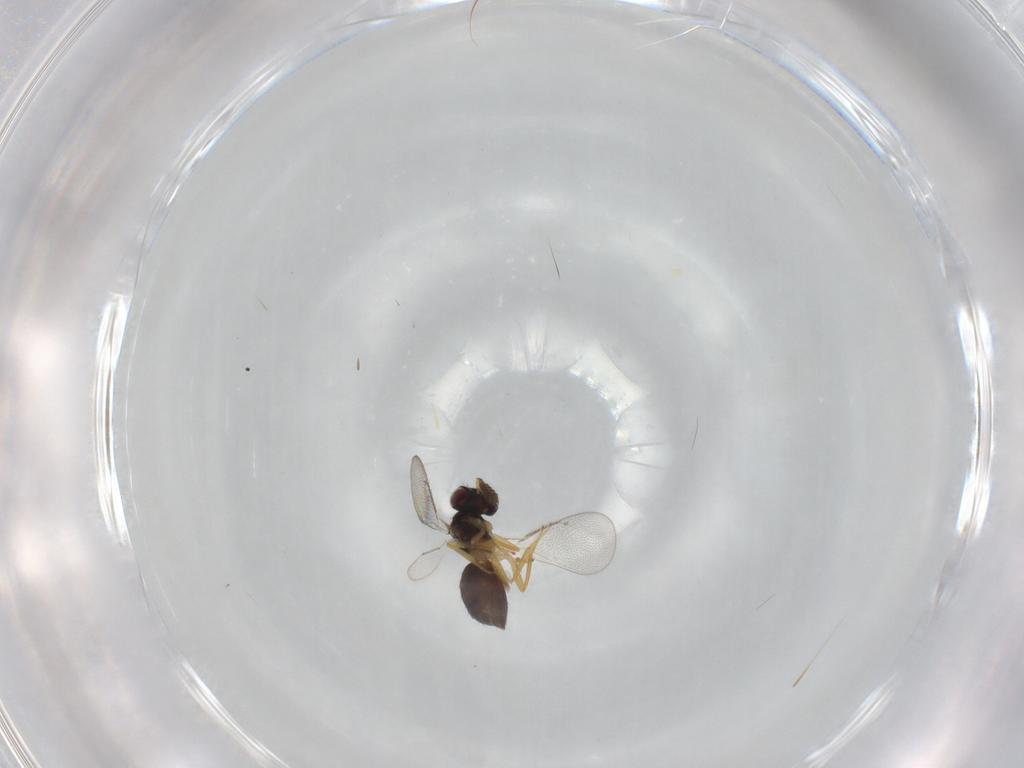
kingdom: Animalia
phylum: Arthropoda
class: Insecta
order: Hymenoptera
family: Eulophidae
